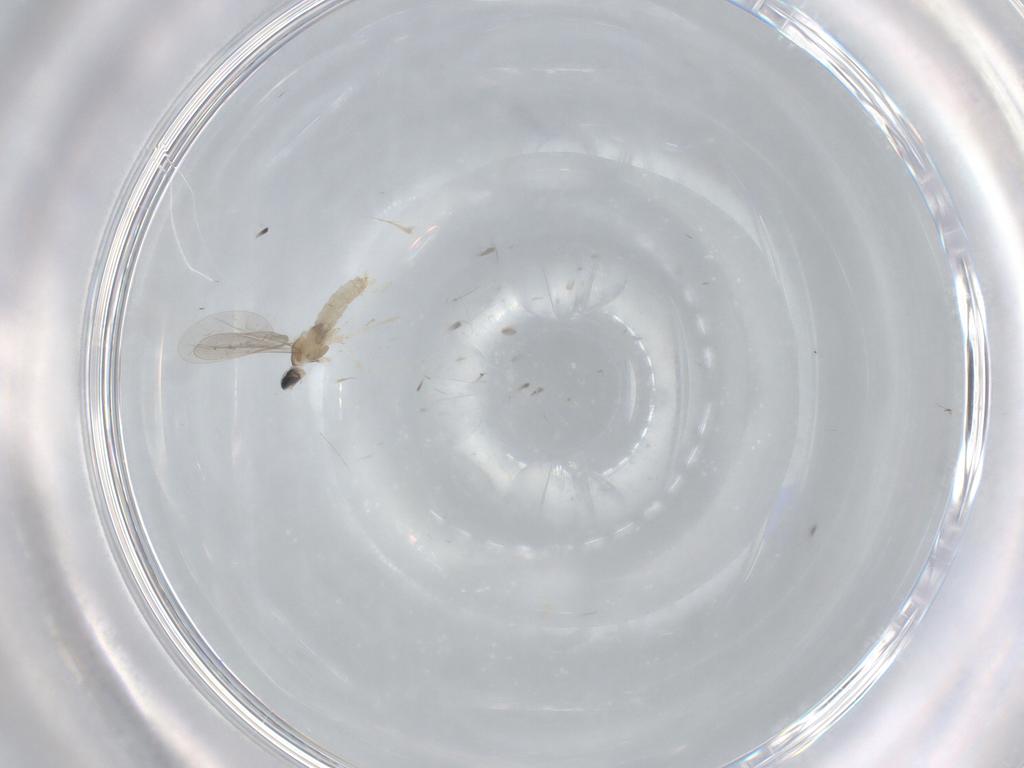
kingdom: Animalia
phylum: Arthropoda
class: Insecta
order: Diptera
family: Cecidomyiidae
